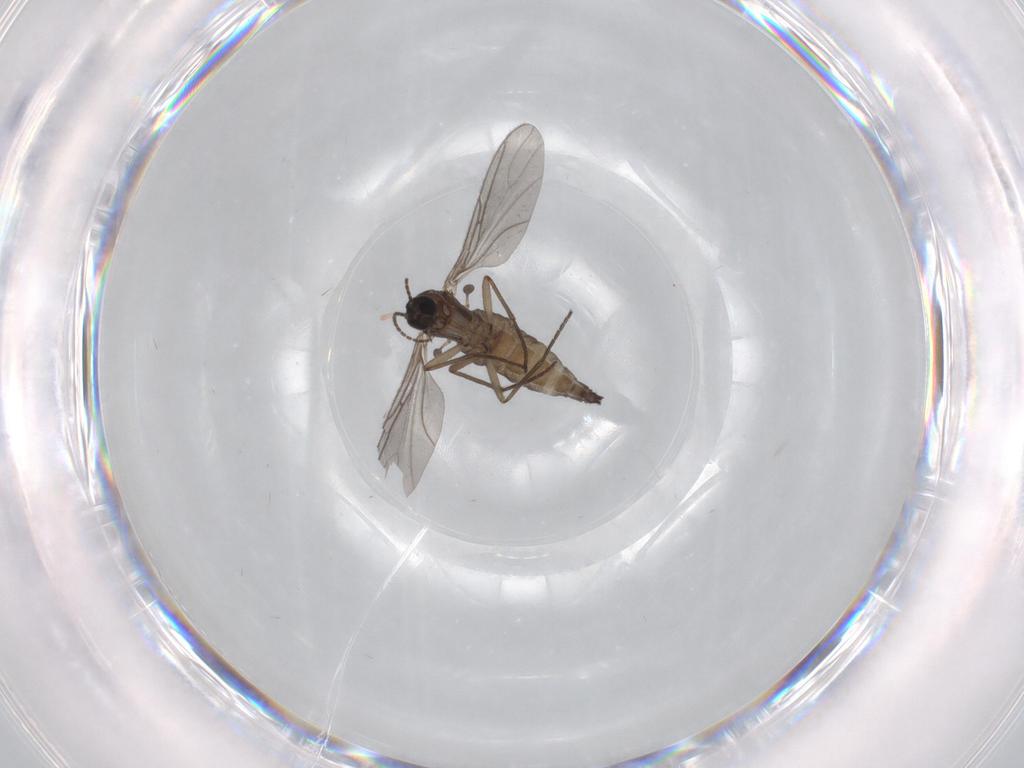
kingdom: Animalia
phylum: Arthropoda
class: Insecta
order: Diptera
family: Sciaridae
